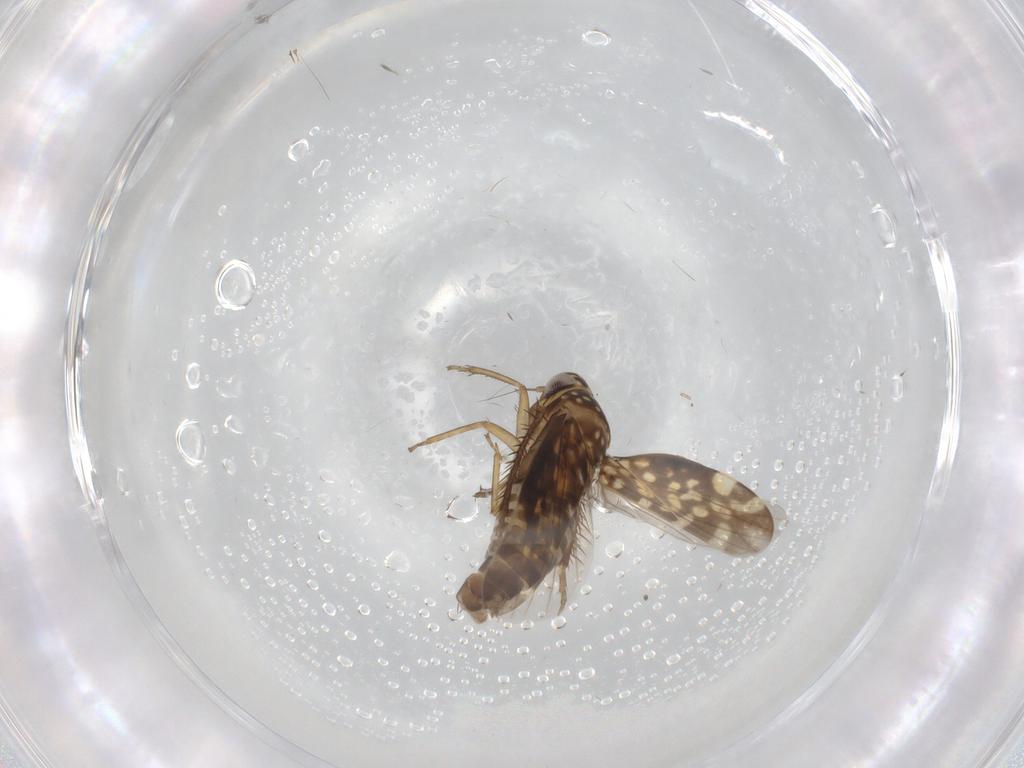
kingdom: Animalia
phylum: Arthropoda
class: Insecta
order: Hemiptera
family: Cicadellidae
